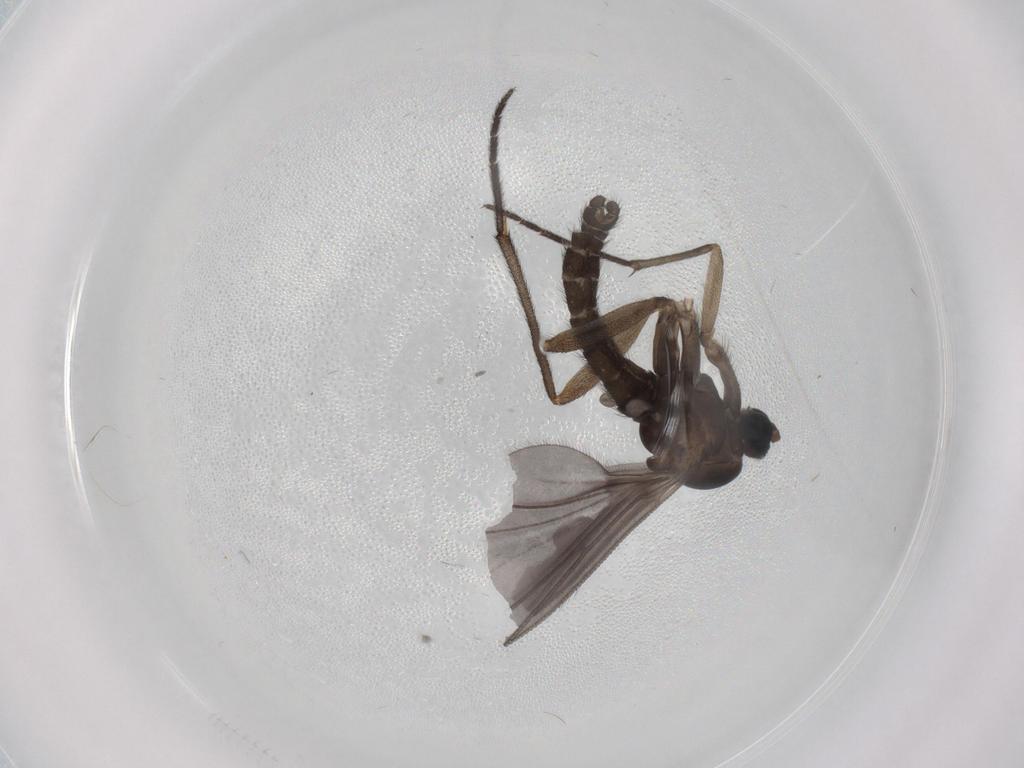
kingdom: Animalia
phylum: Arthropoda
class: Insecta
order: Diptera
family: Sciaridae
